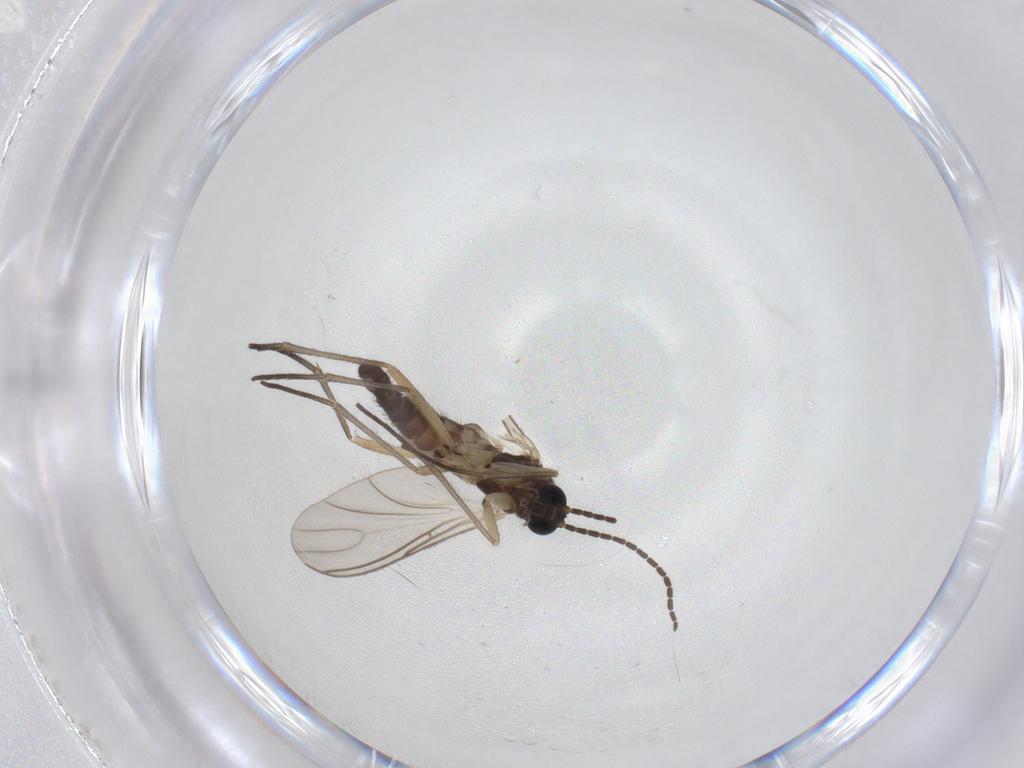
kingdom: Animalia
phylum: Arthropoda
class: Insecta
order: Diptera
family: Sciaridae
